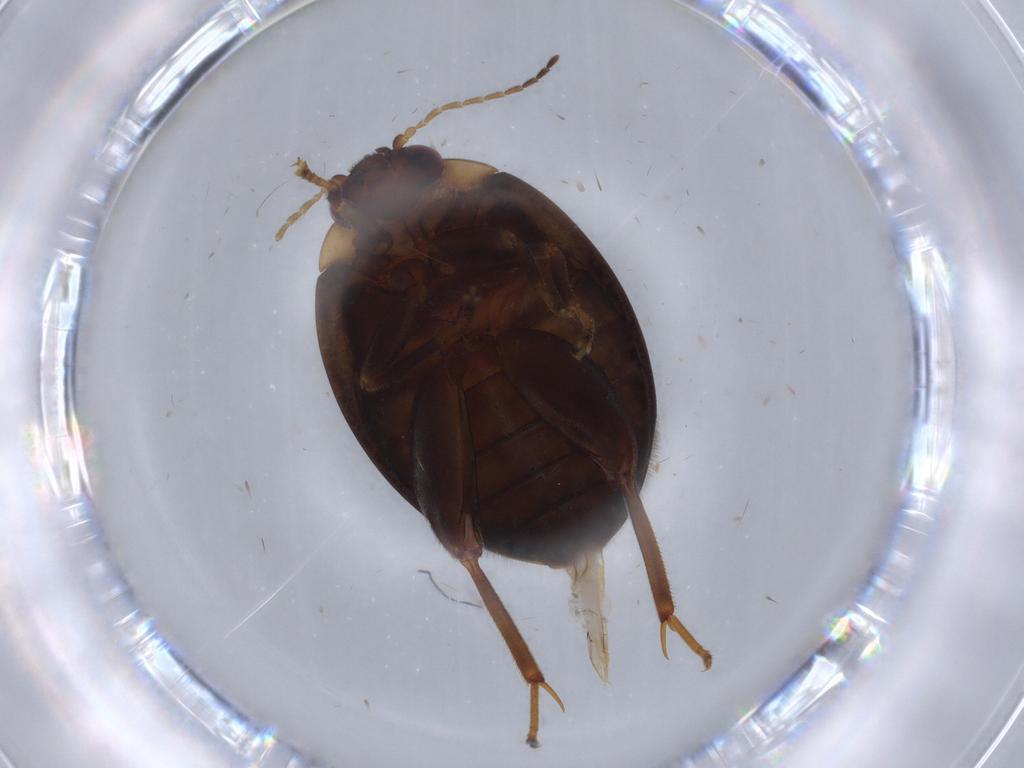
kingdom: Animalia
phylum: Arthropoda
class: Insecta
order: Coleoptera
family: Scirtidae
